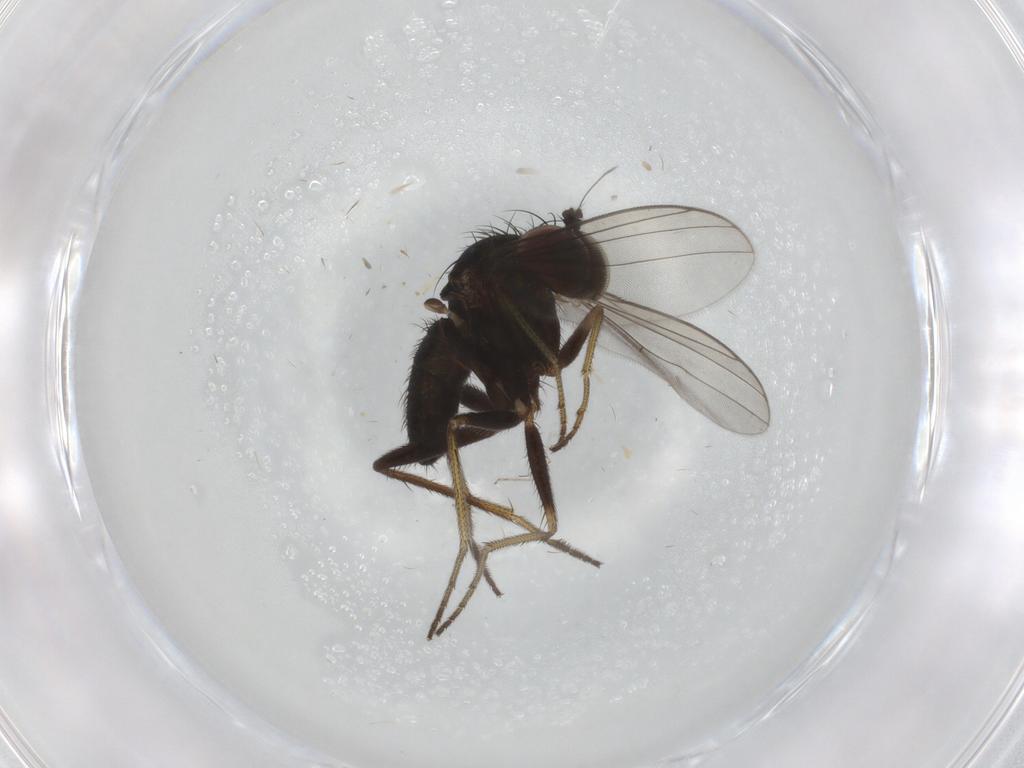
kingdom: Animalia
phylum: Arthropoda
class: Insecta
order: Diptera
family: Dolichopodidae
